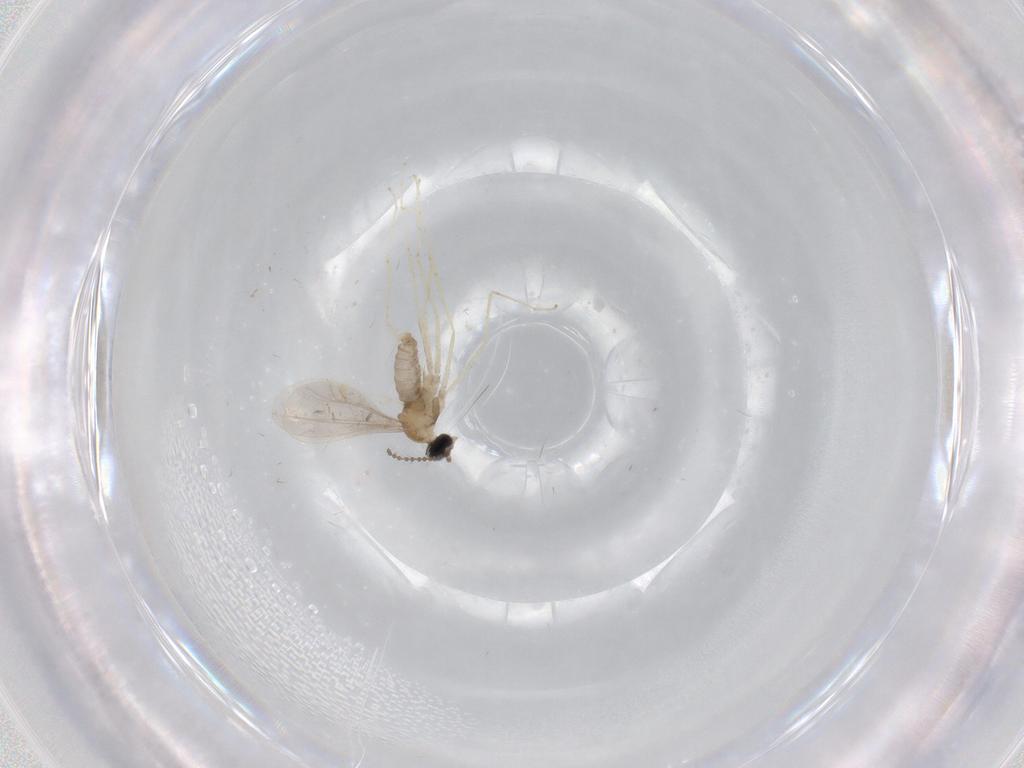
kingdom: Animalia
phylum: Arthropoda
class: Insecta
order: Diptera
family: Cecidomyiidae
